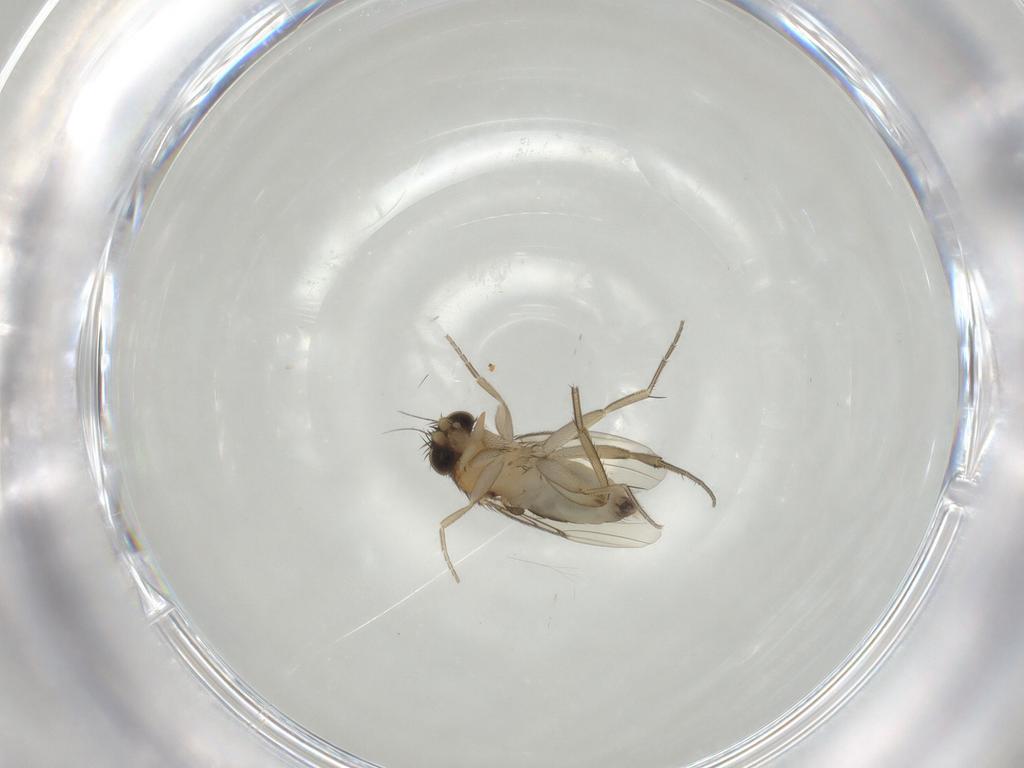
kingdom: Animalia
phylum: Arthropoda
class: Insecta
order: Diptera
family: Phoridae
